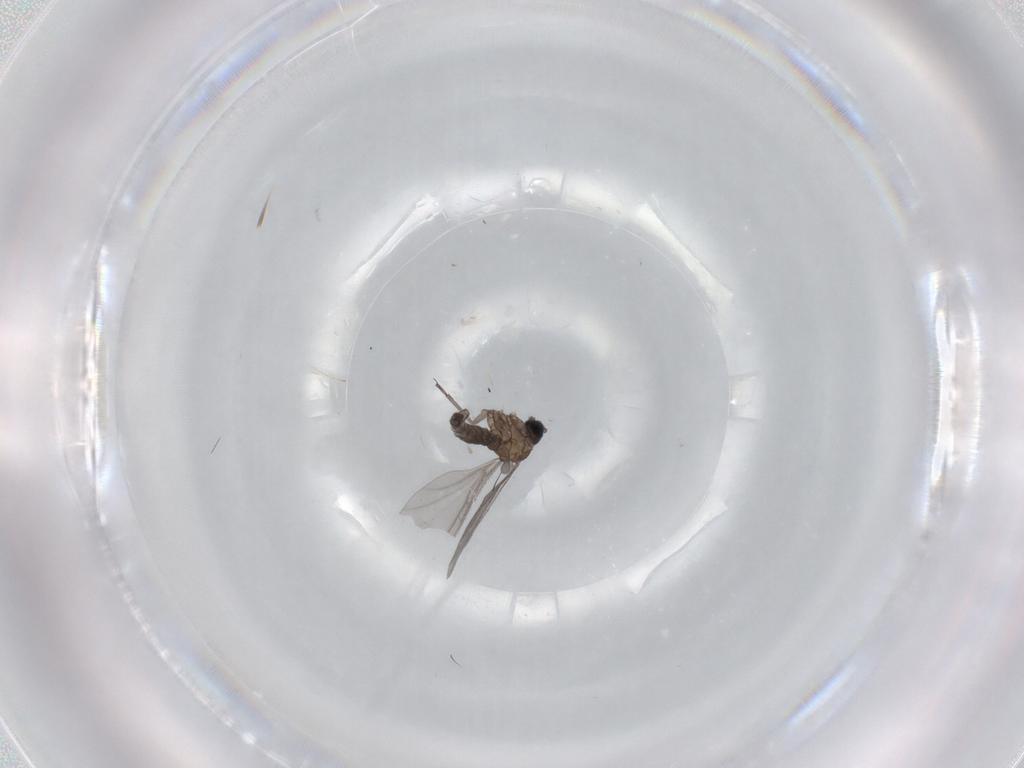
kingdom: Animalia
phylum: Arthropoda
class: Insecta
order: Diptera
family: Sciaridae
